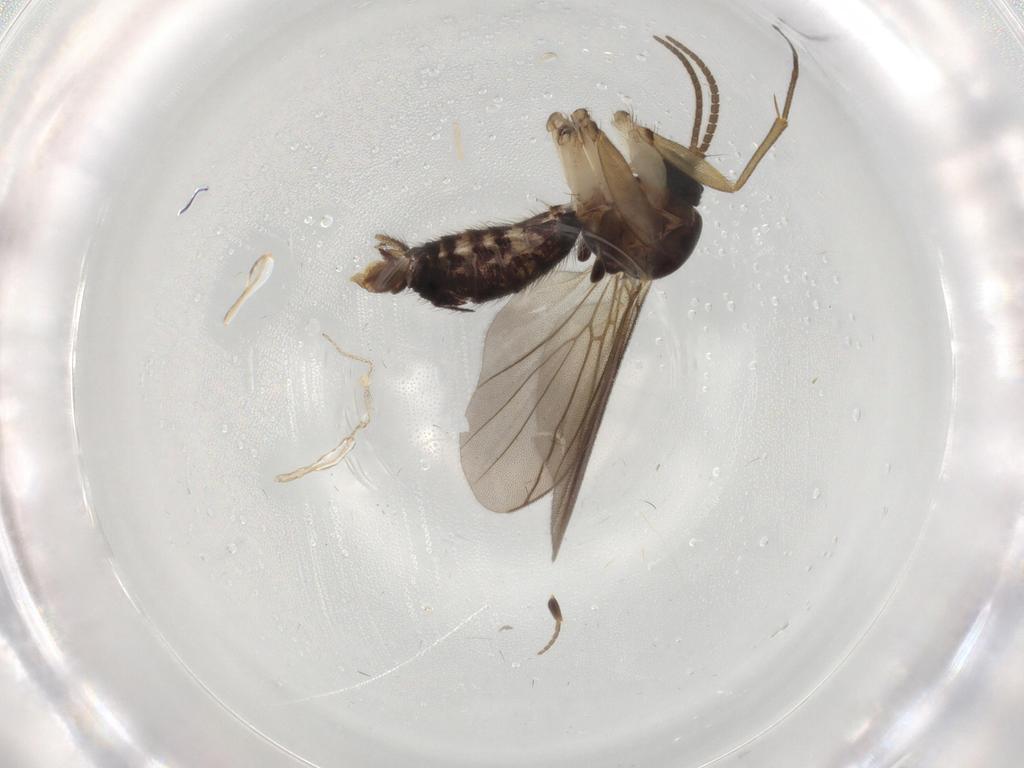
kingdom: Animalia
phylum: Arthropoda
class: Insecta
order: Diptera
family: Mycetophilidae
